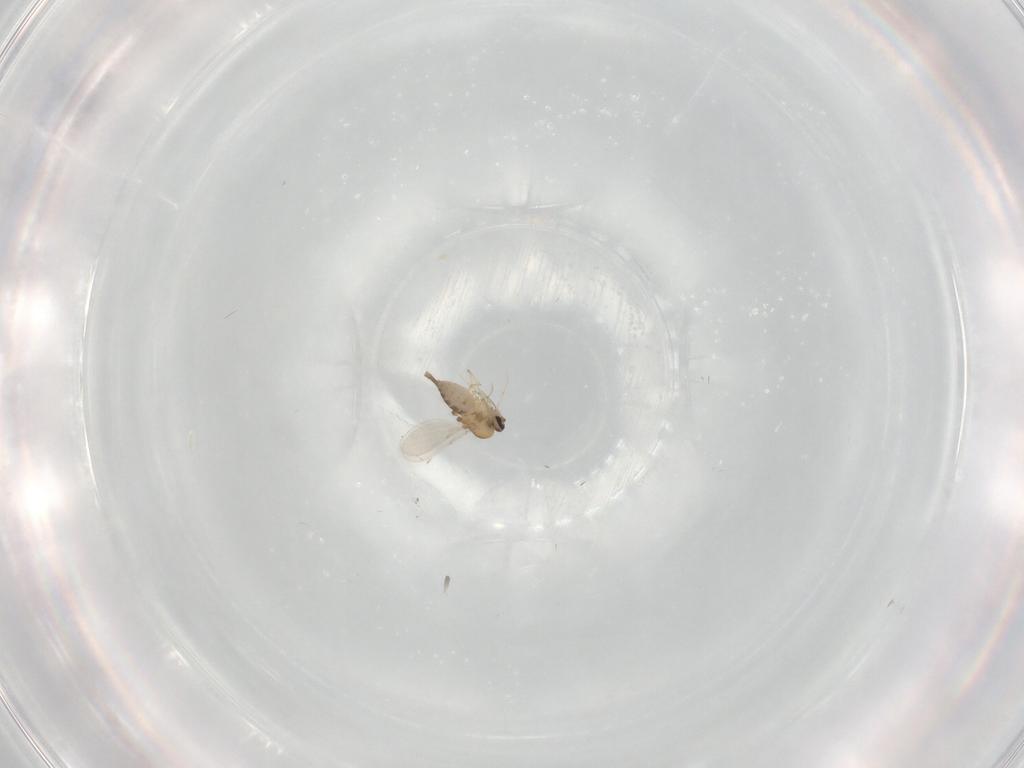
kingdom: Animalia
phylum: Arthropoda
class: Insecta
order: Diptera
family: Ceratopogonidae
